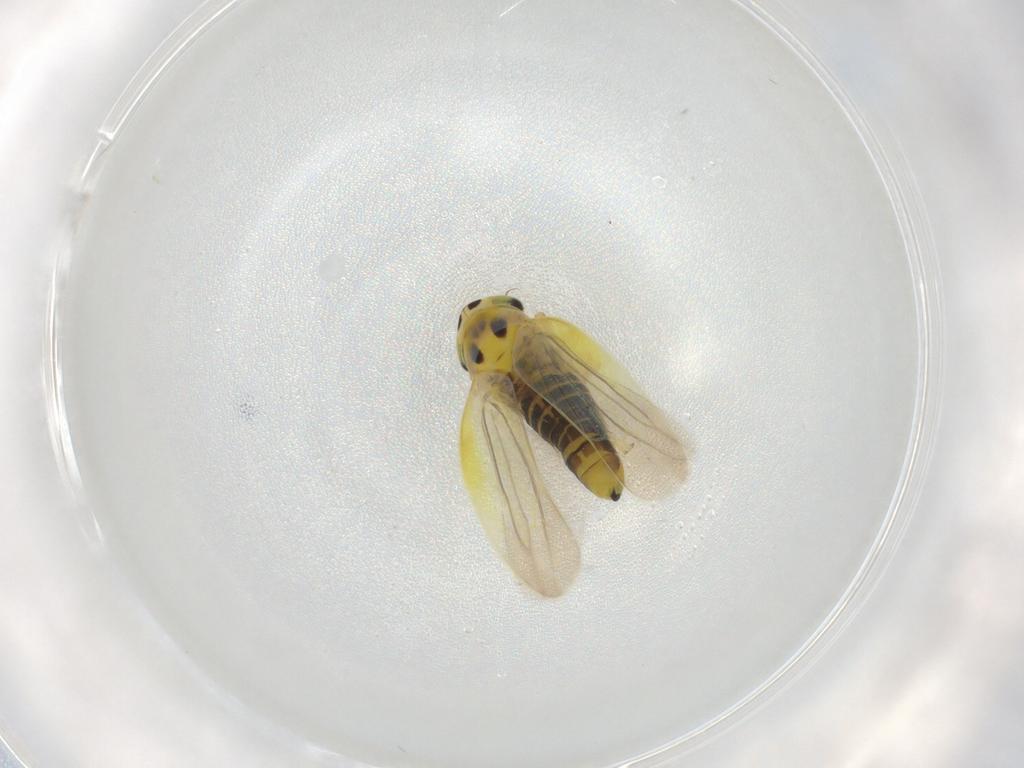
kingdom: Animalia
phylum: Arthropoda
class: Insecta
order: Hemiptera
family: Cicadellidae
